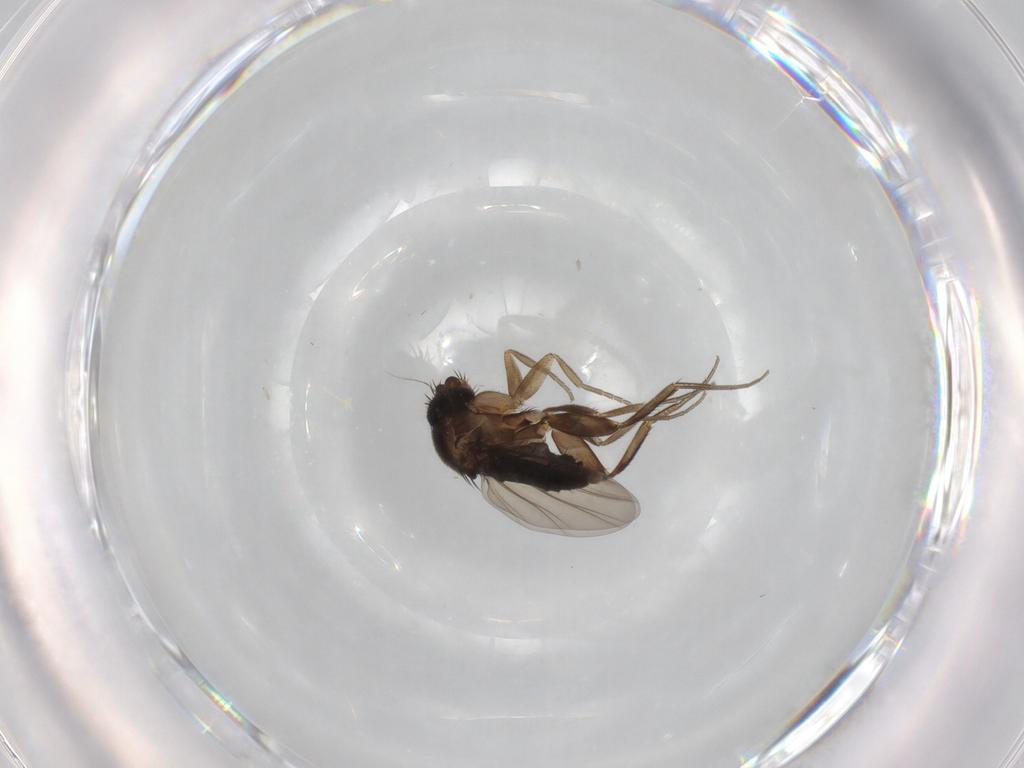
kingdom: Animalia
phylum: Arthropoda
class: Insecta
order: Diptera
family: Phoridae
